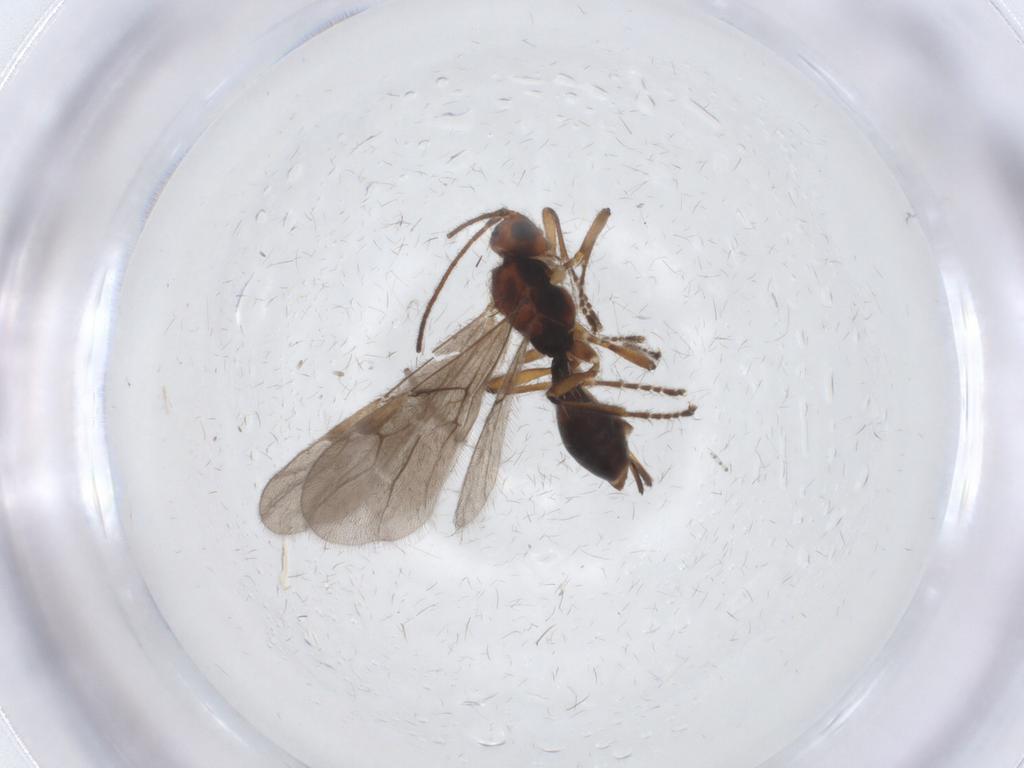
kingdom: Animalia
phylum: Arthropoda
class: Insecta
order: Hymenoptera
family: Braconidae
